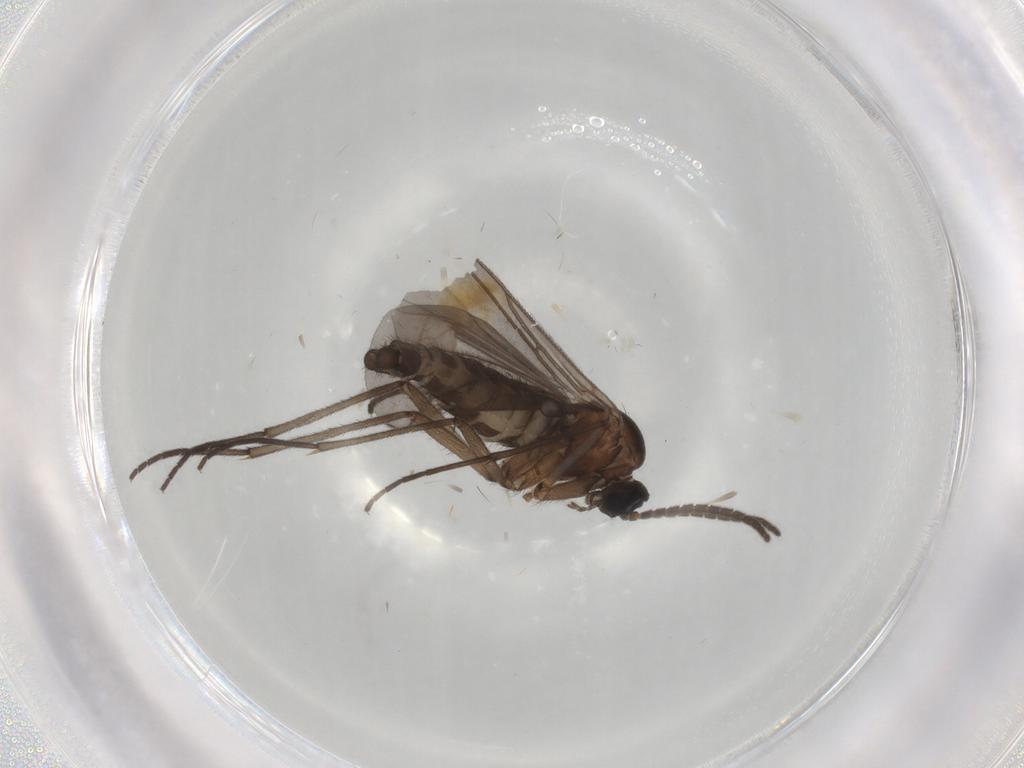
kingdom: Animalia
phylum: Arthropoda
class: Insecta
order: Diptera
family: Sciaridae
